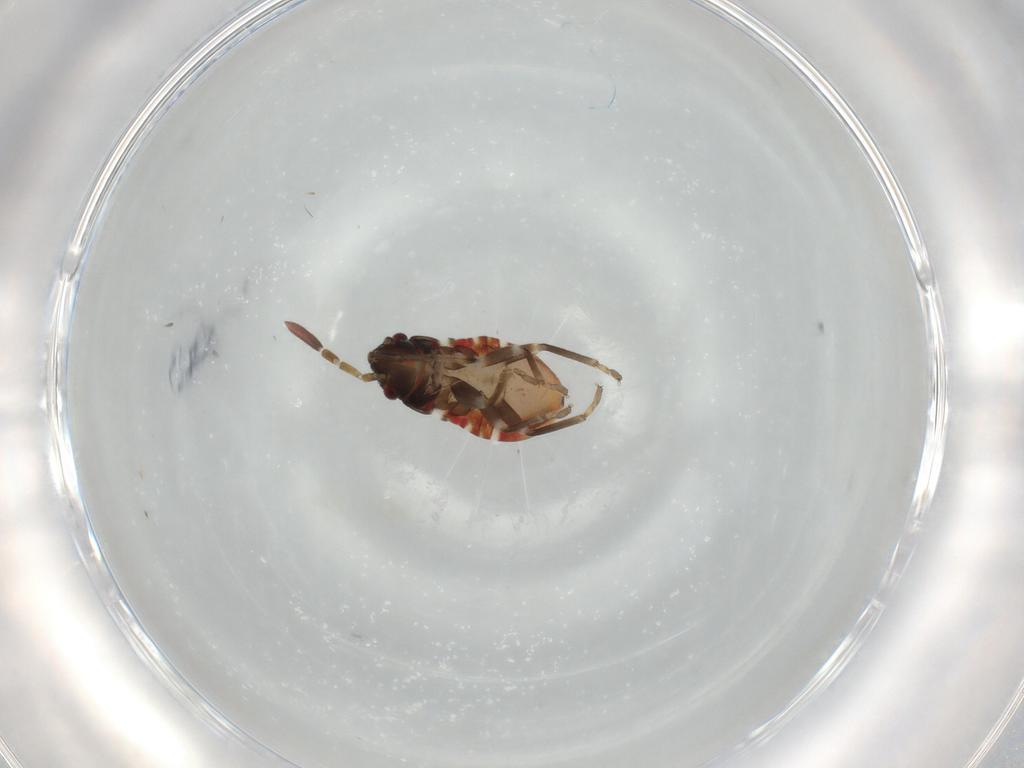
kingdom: Animalia
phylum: Arthropoda
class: Insecta
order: Hemiptera
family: Rhyparochromidae
